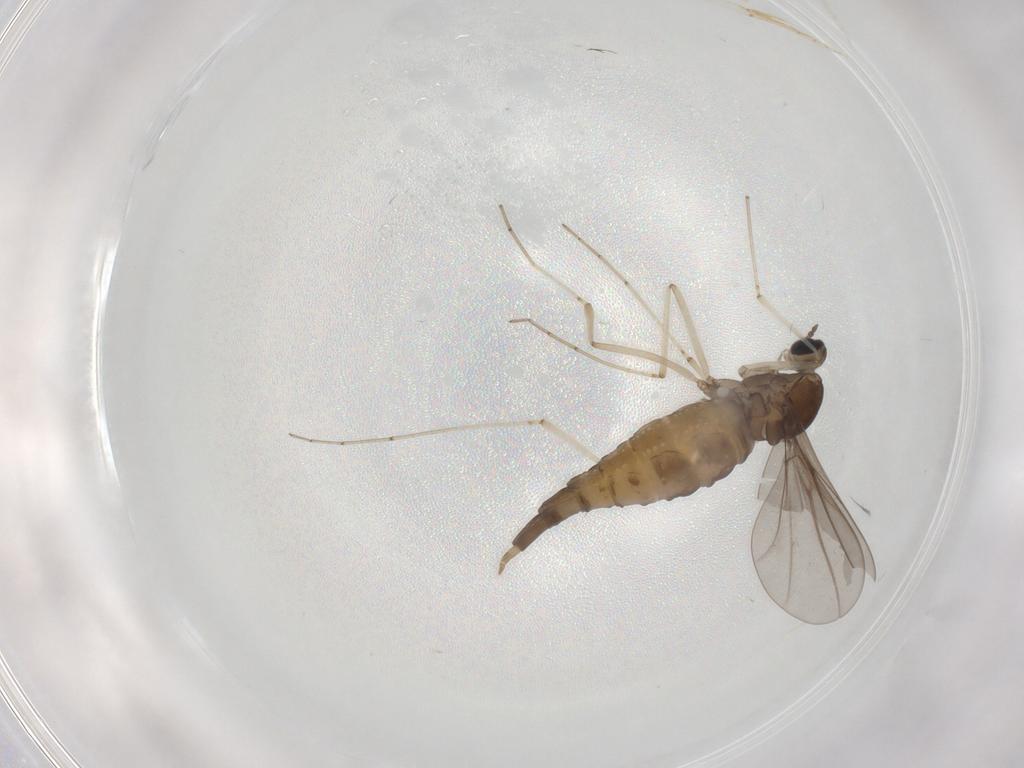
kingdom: Animalia
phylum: Arthropoda
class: Insecta
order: Diptera
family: Cecidomyiidae
